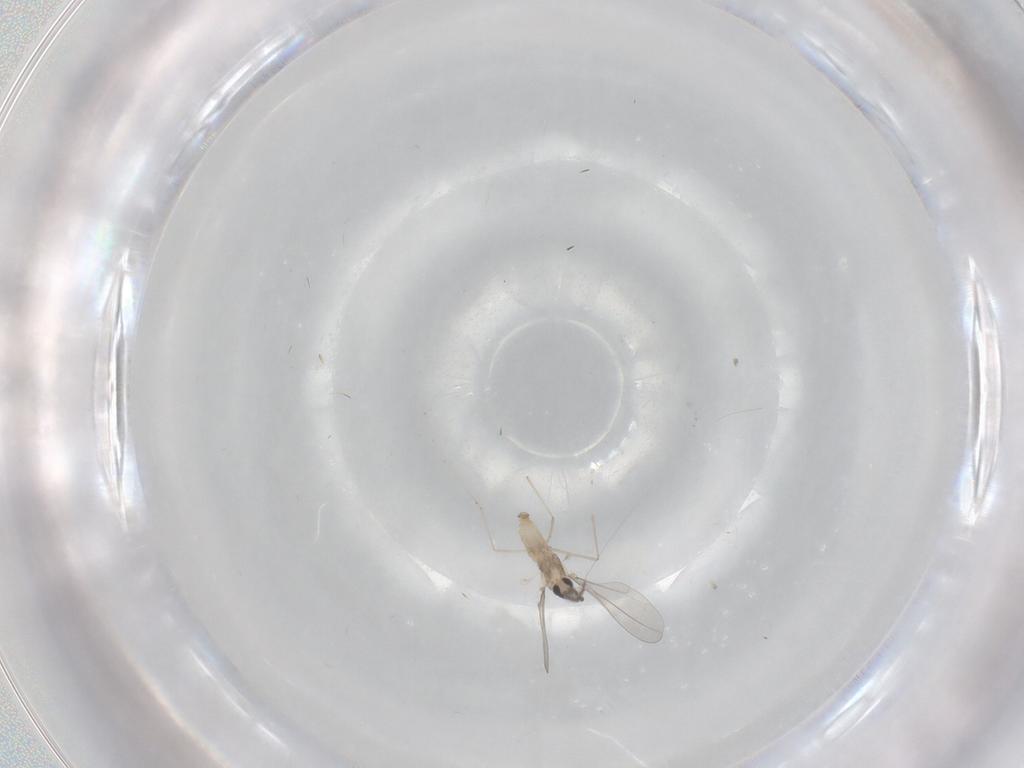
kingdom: Animalia
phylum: Arthropoda
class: Insecta
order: Diptera
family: Cecidomyiidae
